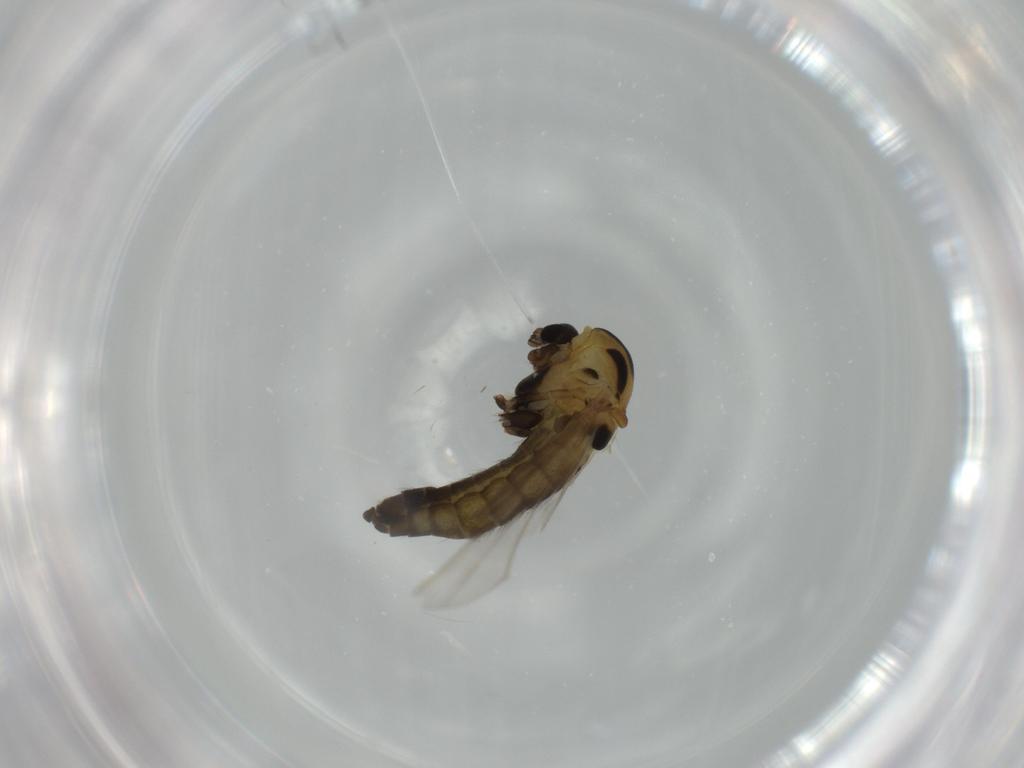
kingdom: Animalia
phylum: Arthropoda
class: Insecta
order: Diptera
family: Chironomidae
